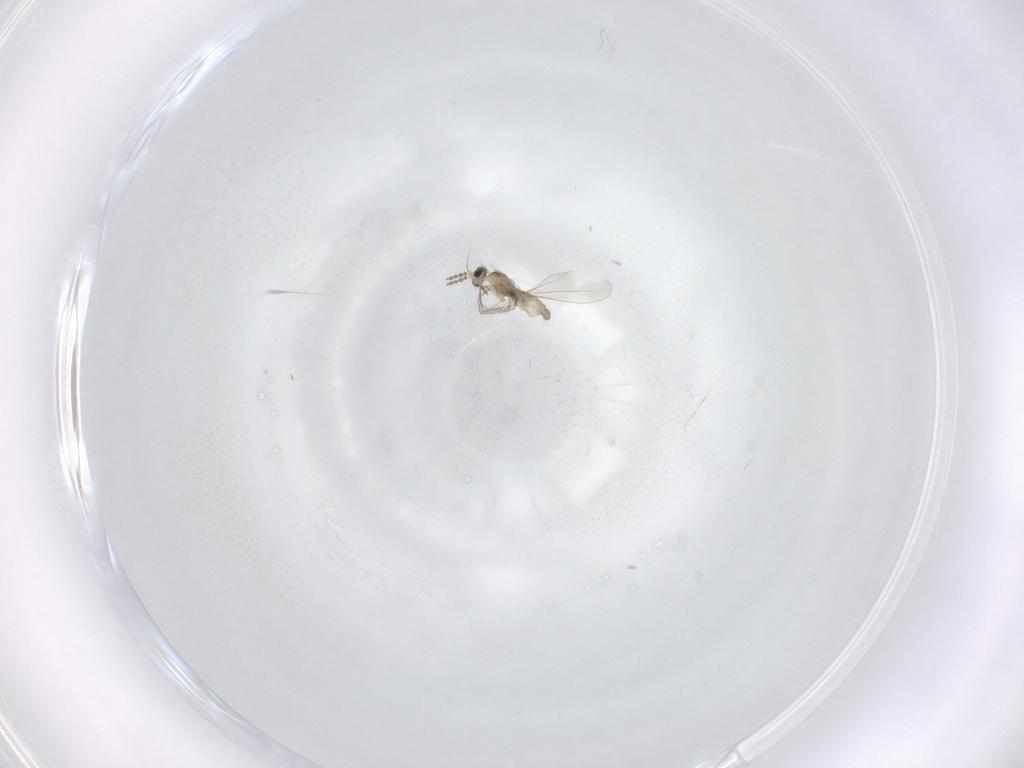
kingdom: Animalia
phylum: Arthropoda
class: Insecta
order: Diptera
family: Cecidomyiidae
